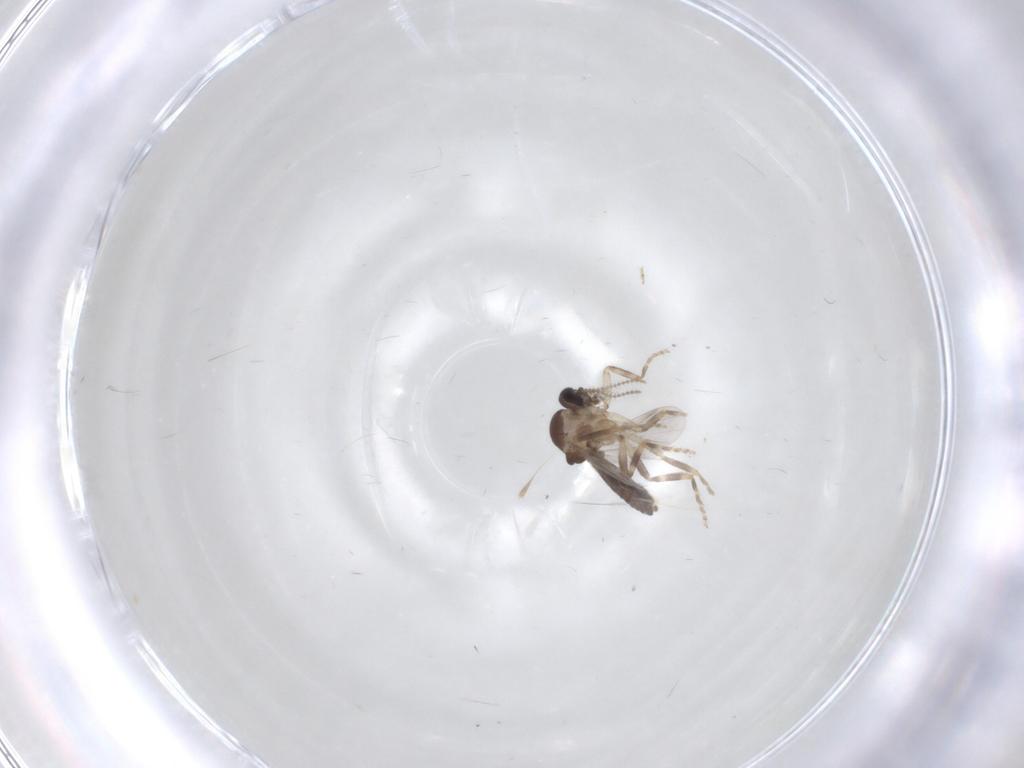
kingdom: Animalia
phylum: Arthropoda
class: Insecta
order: Diptera
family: Ceratopogonidae
